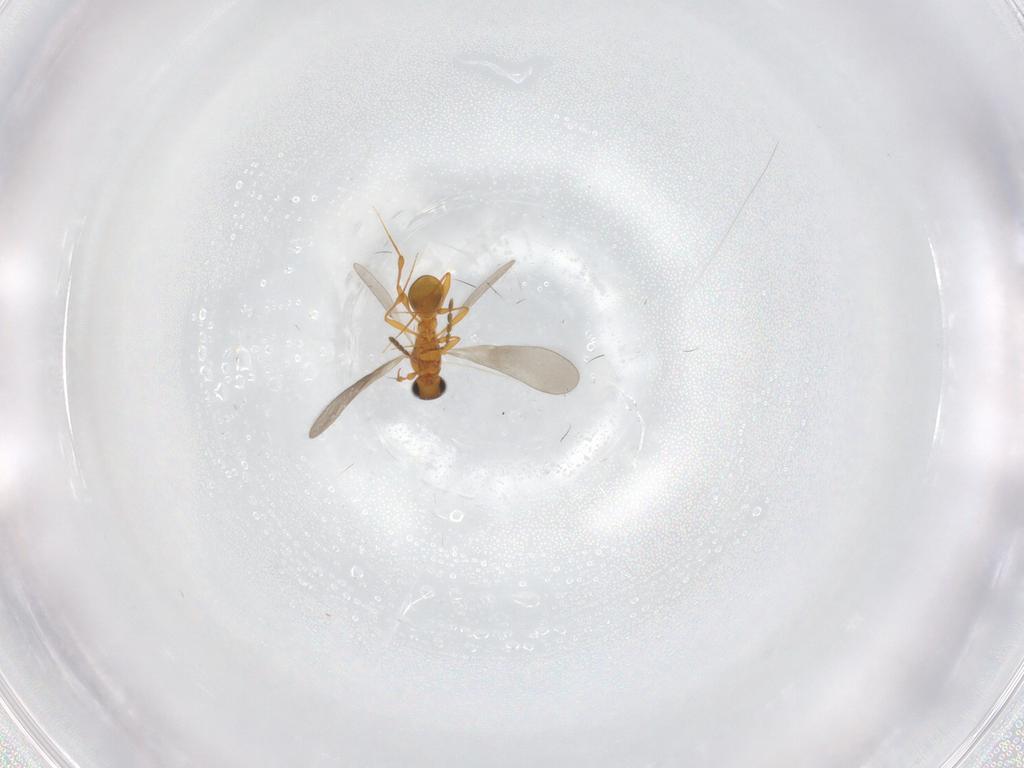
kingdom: Animalia
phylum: Arthropoda
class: Insecta
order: Hymenoptera
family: Platygastridae
